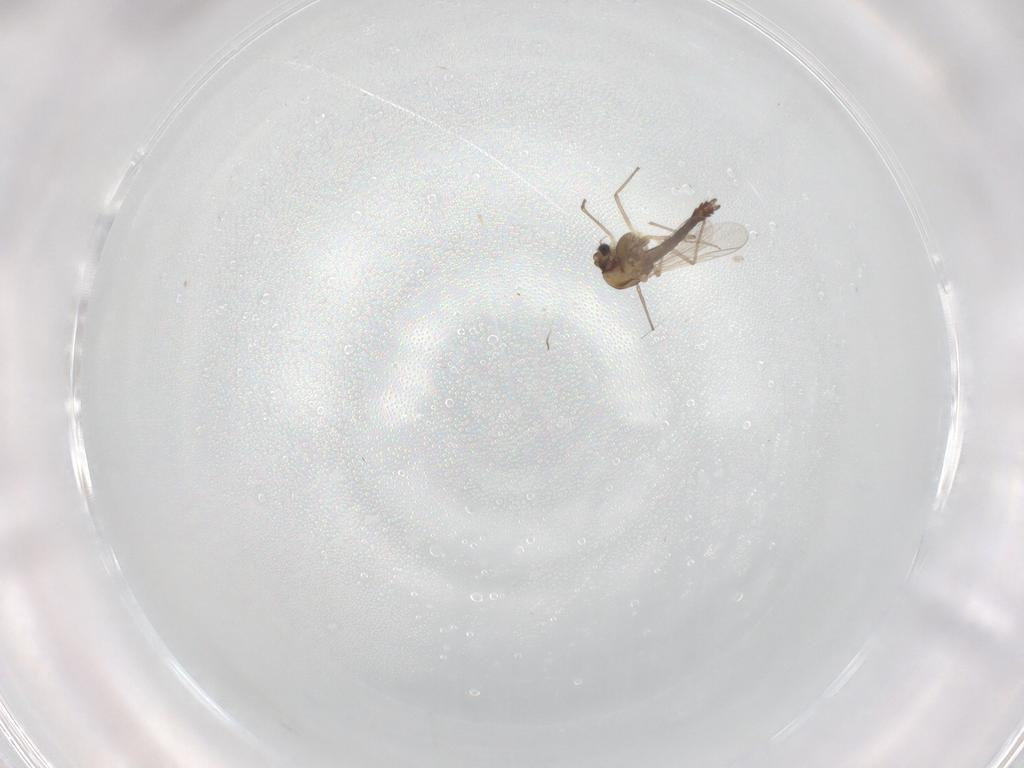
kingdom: Animalia
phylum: Arthropoda
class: Insecta
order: Diptera
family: Chironomidae
